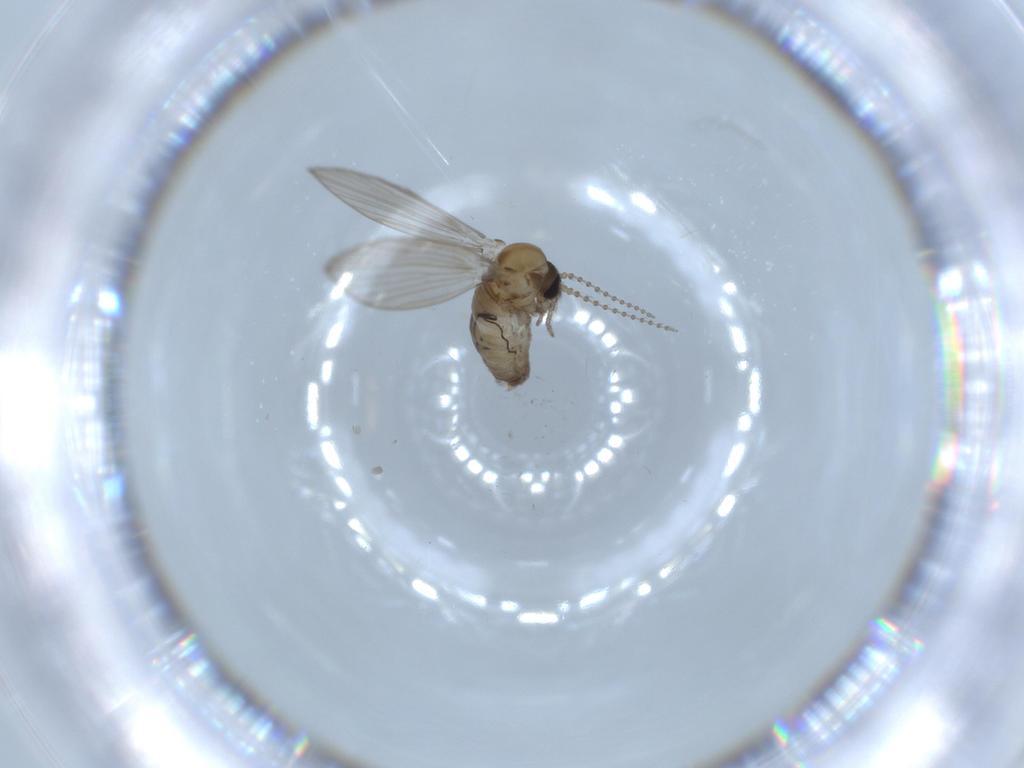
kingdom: Animalia
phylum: Arthropoda
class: Insecta
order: Diptera
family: Psychodidae
